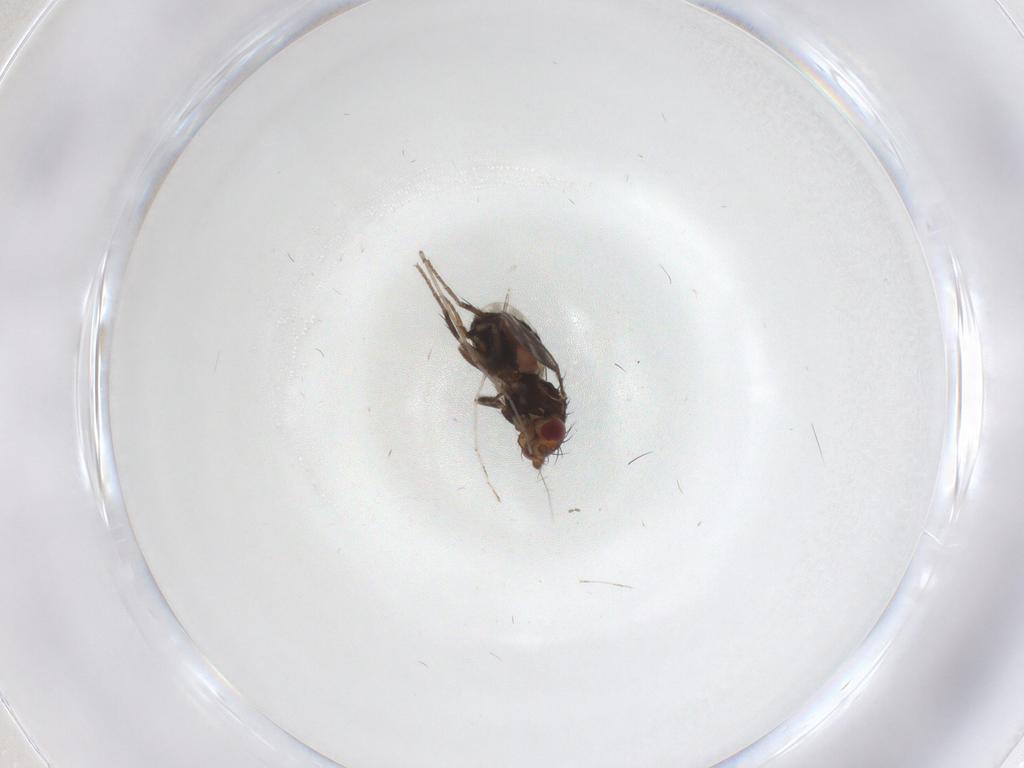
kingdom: Animalia
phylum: Arthropoda
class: Insecta
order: Diptera
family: Sphaeroceridae
